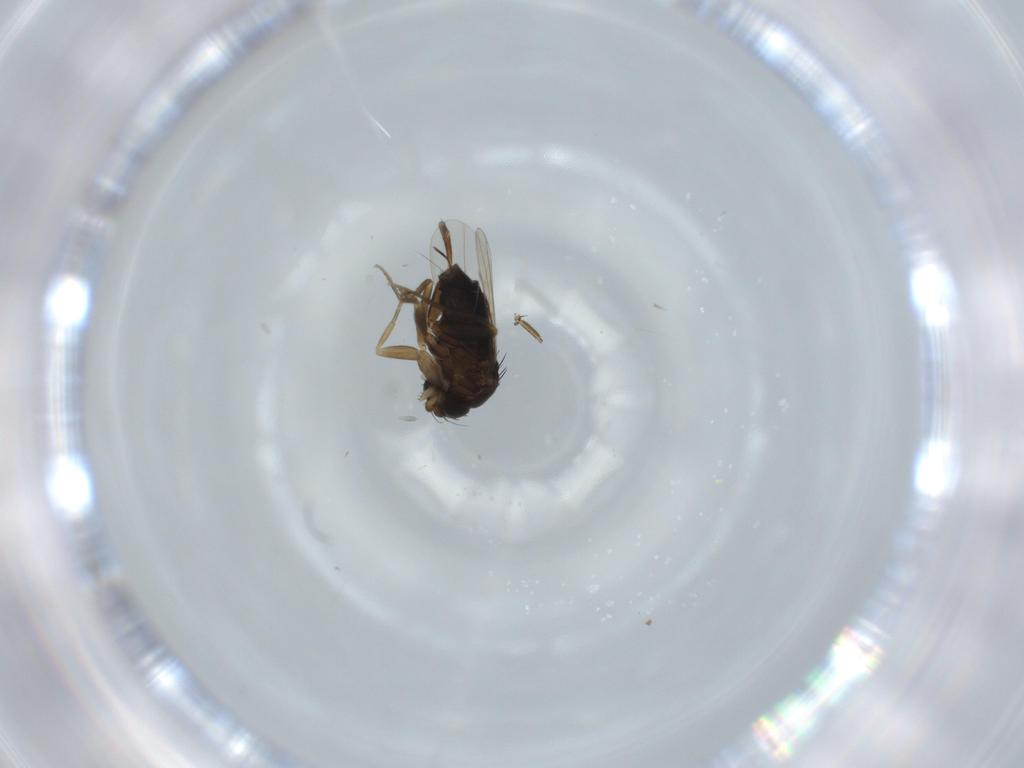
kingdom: Animalia
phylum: Arthropoda
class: Insecta
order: Diptera
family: Phoridae
